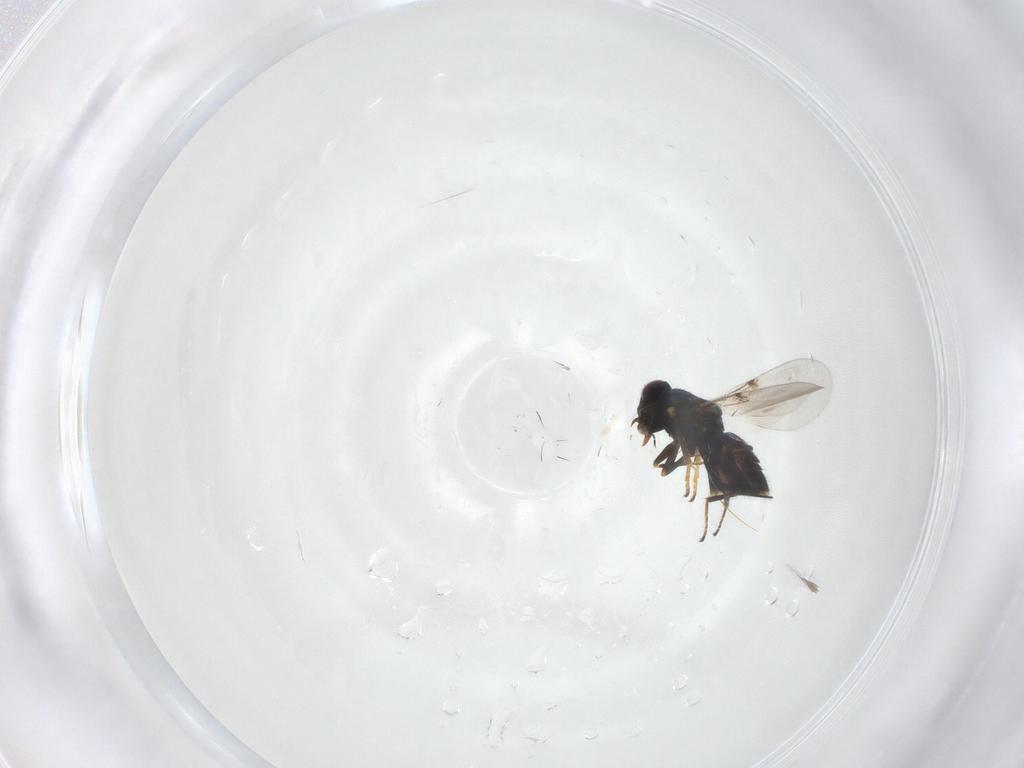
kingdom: Animalia
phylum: Arthropoda
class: Insecta
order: Hymenoptera
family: Encyrtidae
